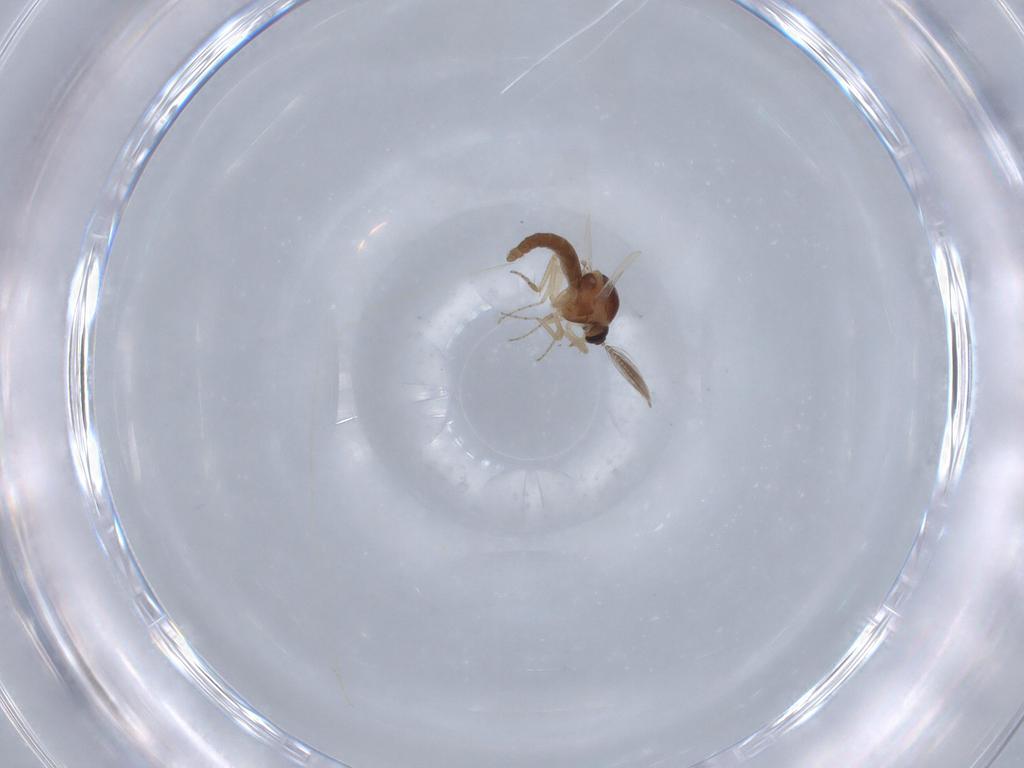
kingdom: Animalia
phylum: Arthropoda
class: Insecta
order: Diptera
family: Ceratopogonidae
